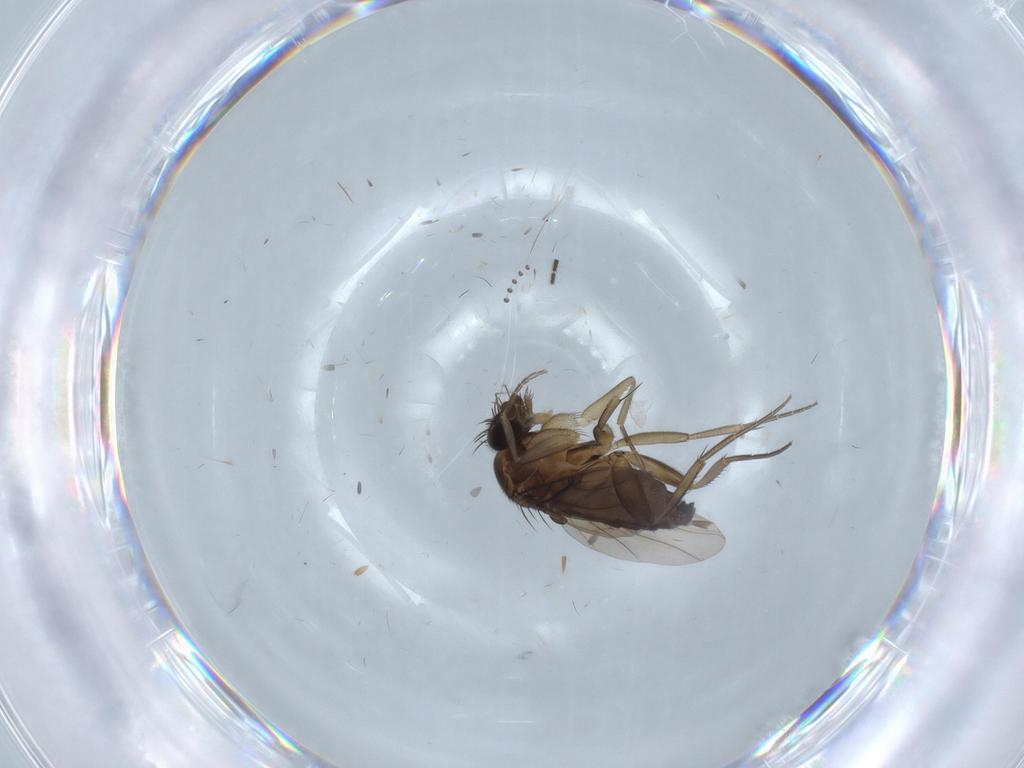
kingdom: Animalia
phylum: Arthropoda
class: Insecta
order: Diptera
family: Phoridae
